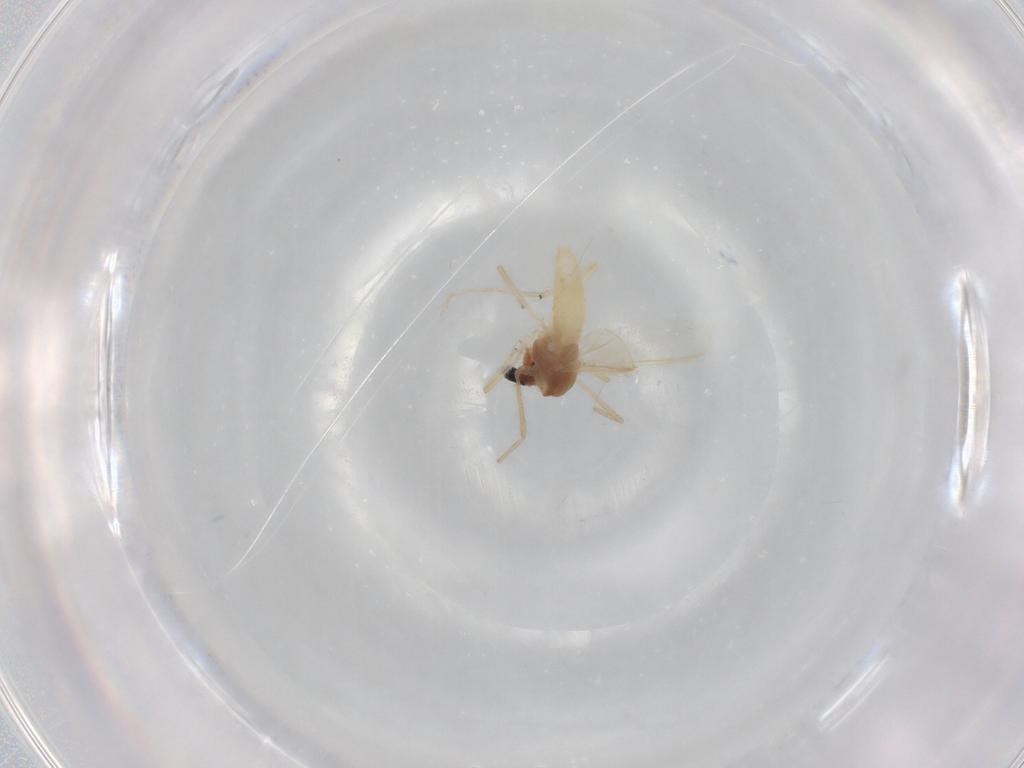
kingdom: Animalia
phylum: Arthropoda
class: Insecta
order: Diptera
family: Chironomidae
